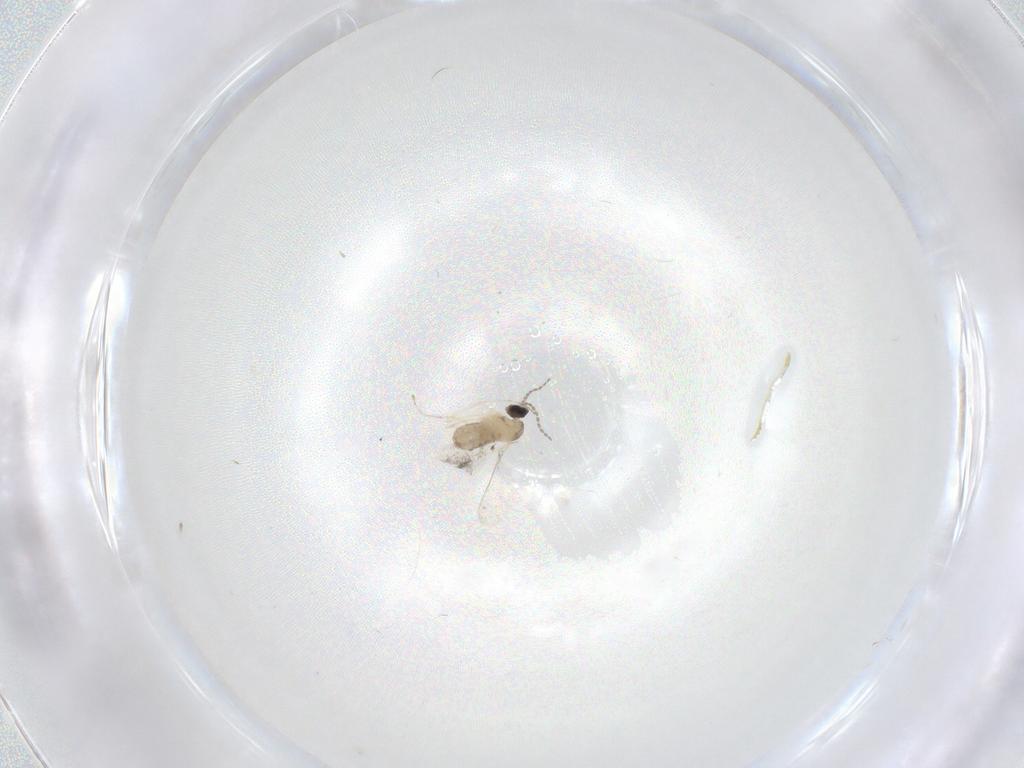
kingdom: Animalia
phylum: Arthropoda
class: Insecta
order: Diptera
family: Cecidomyiidae
